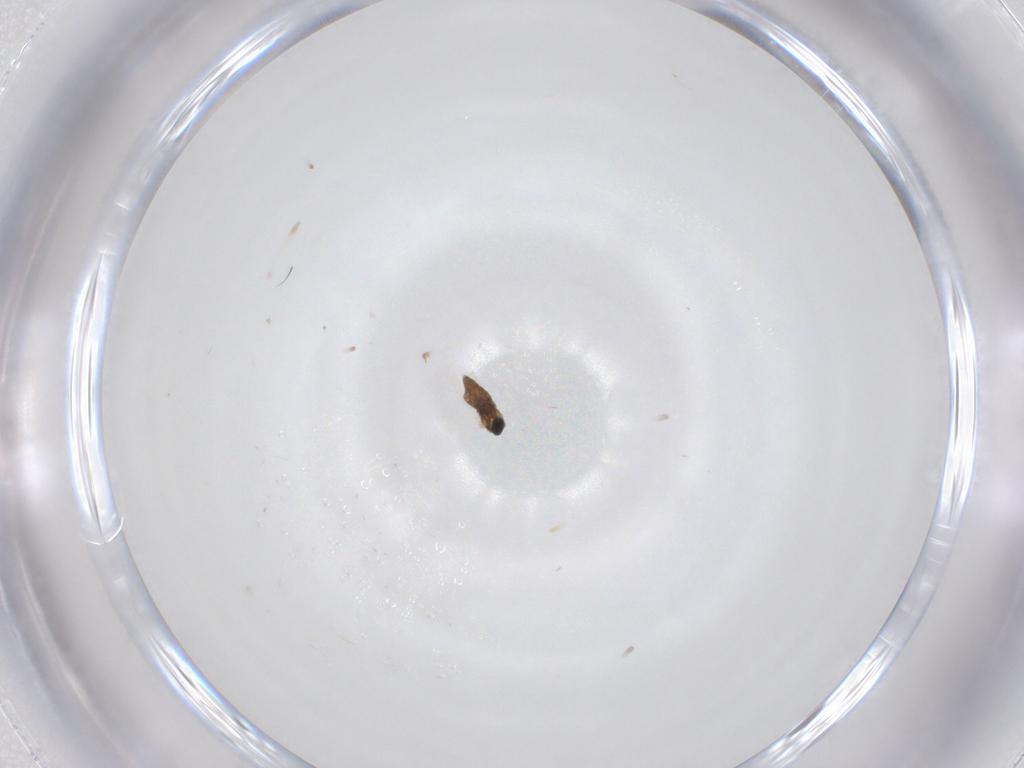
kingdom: Animalia
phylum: Arthropoda
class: Insecta
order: Diptera
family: Cecidomyiidae
